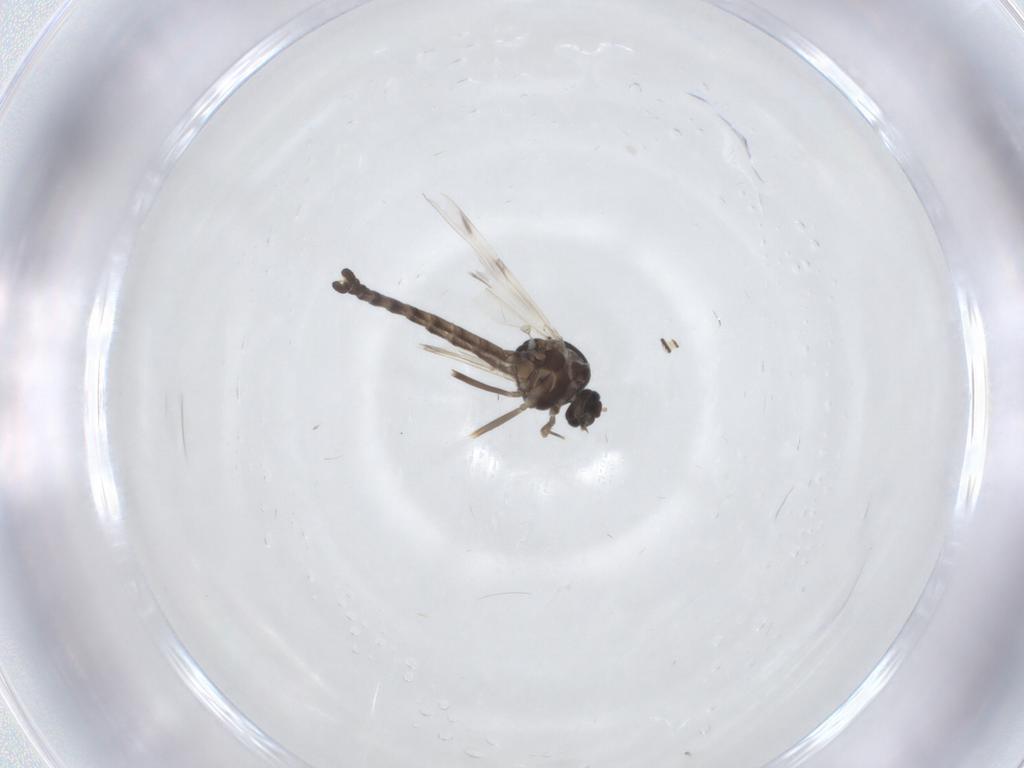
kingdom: Animalia
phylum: Arthropoda
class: Insecta
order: Diptera
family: Ceratopogonidae
